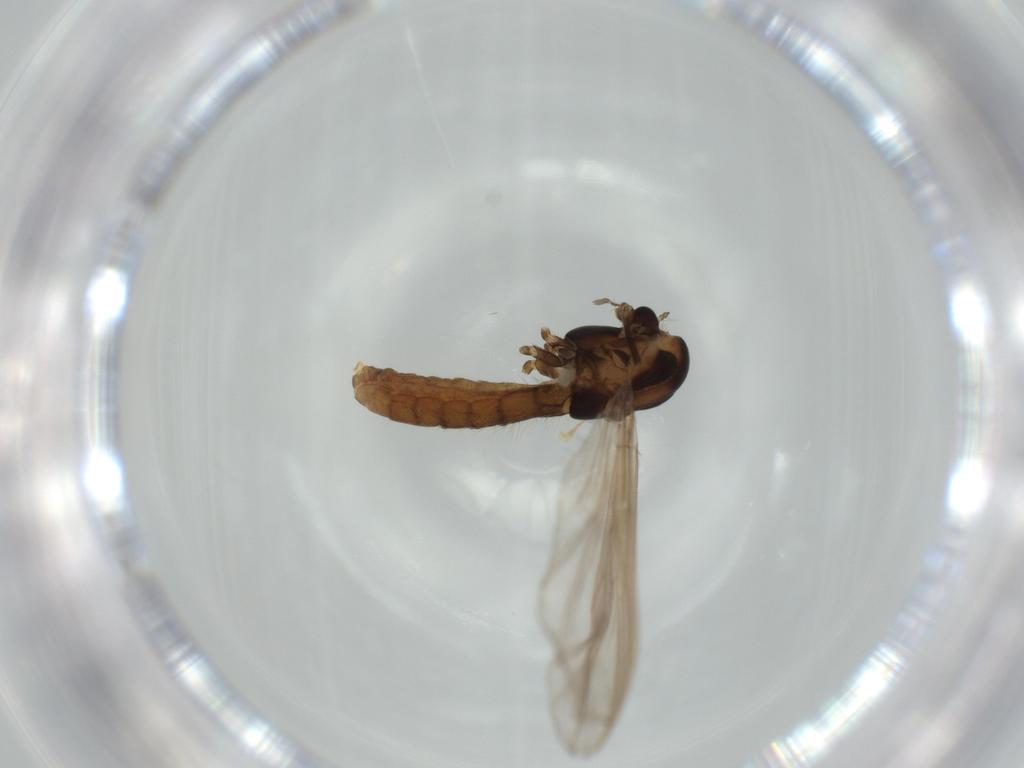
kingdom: Animalia
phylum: Arthropoda
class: Insecta
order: Diptera
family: Chironomidae
